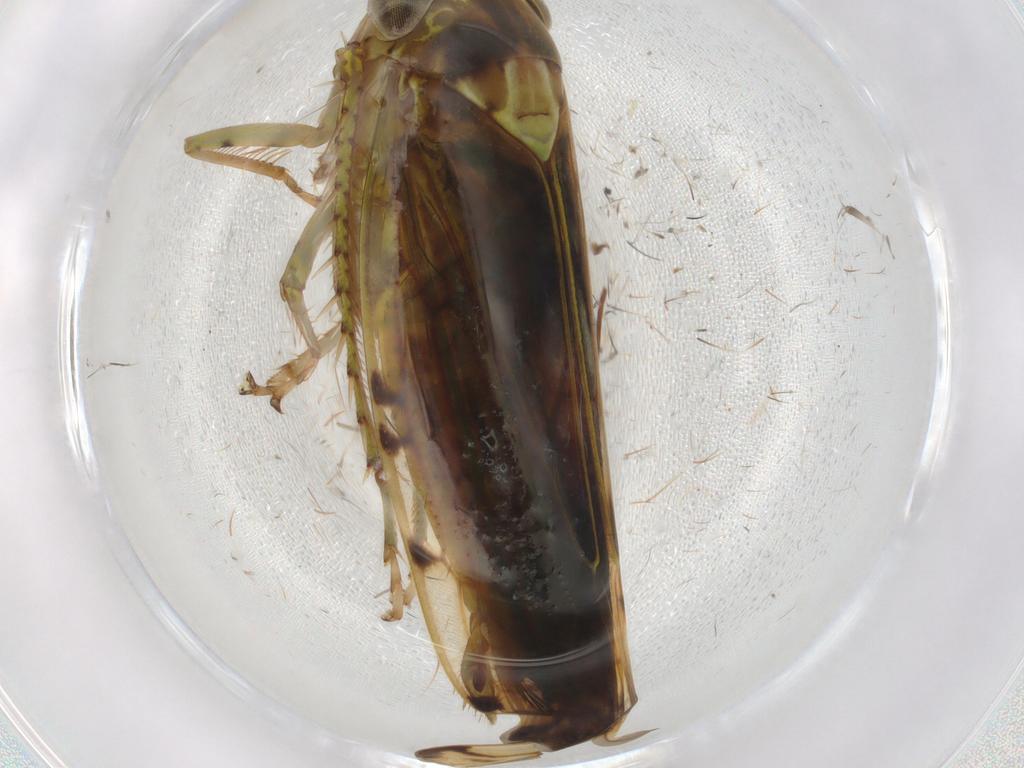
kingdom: Animalia
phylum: Arthropoda
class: Insecta
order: Hemiptera
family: Cicadellidae
